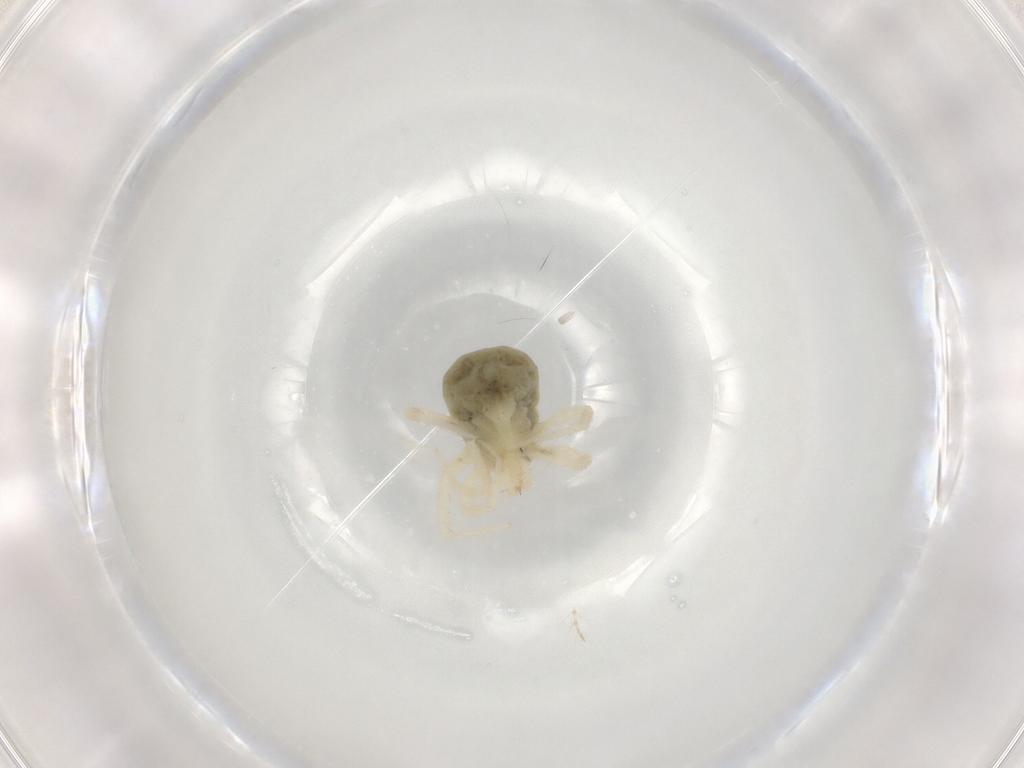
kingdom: Animalia
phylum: Arthropoda
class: Arachnida
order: Trombidiformes
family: Anystidae
